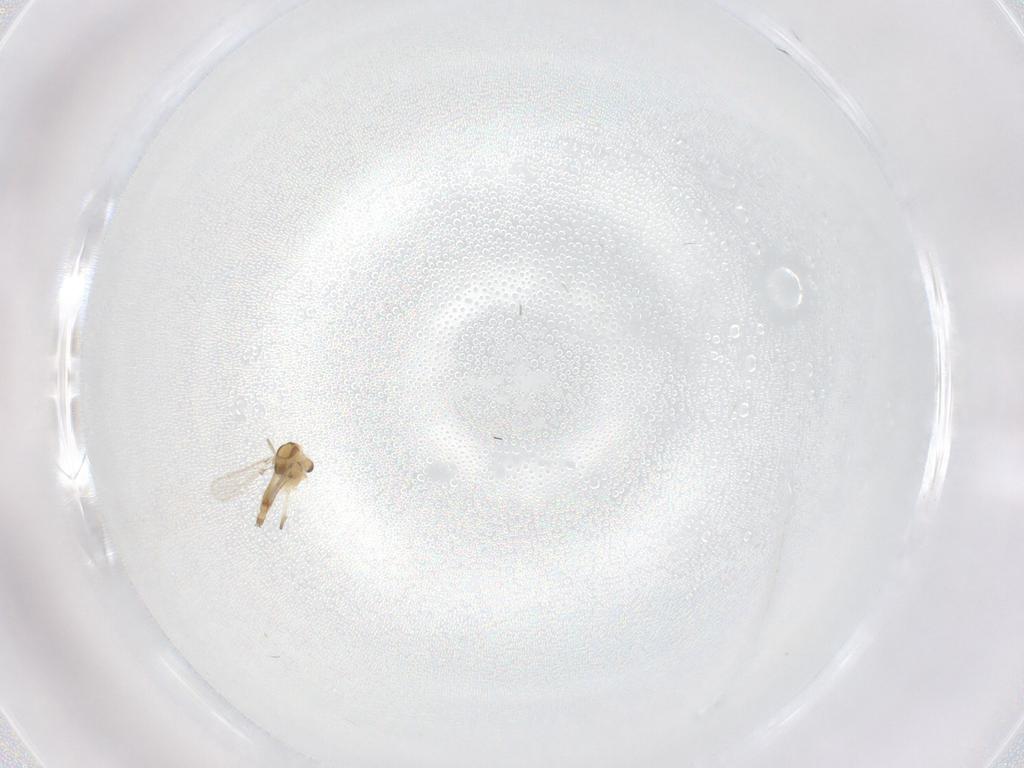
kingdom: Animalia
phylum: Arthropoda
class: Insecta
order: Diptera
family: Chironomidae
